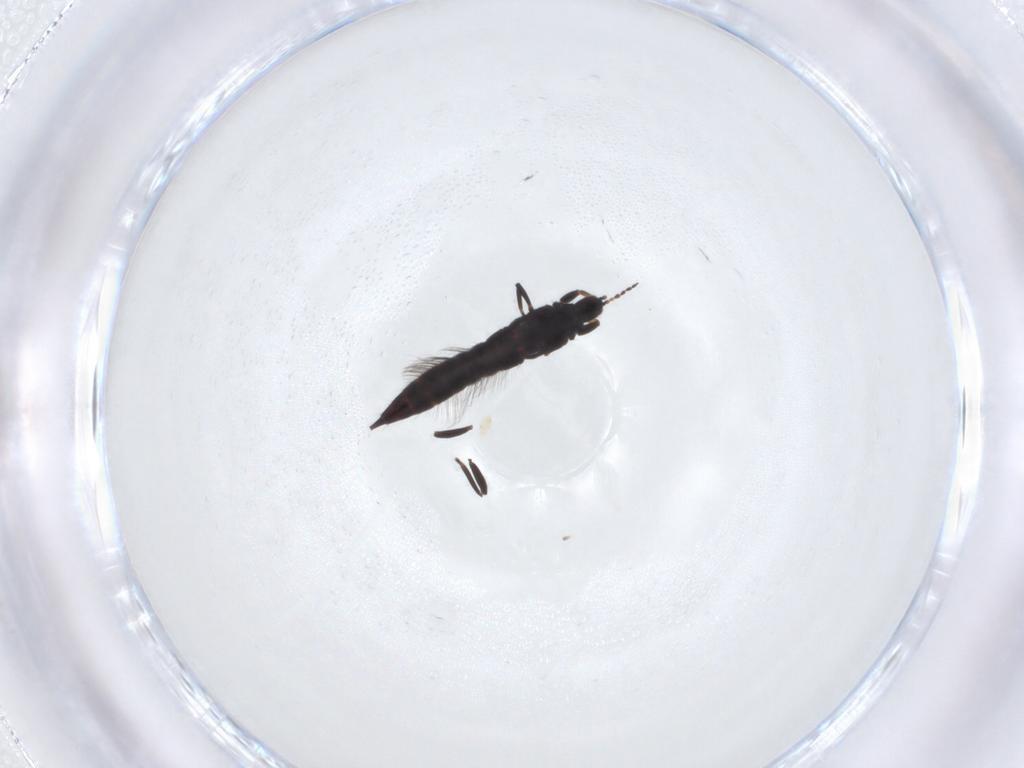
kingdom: Animalia
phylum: Arthropoda
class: Insecta
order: Thysanoptera
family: Phlaeothripidae
